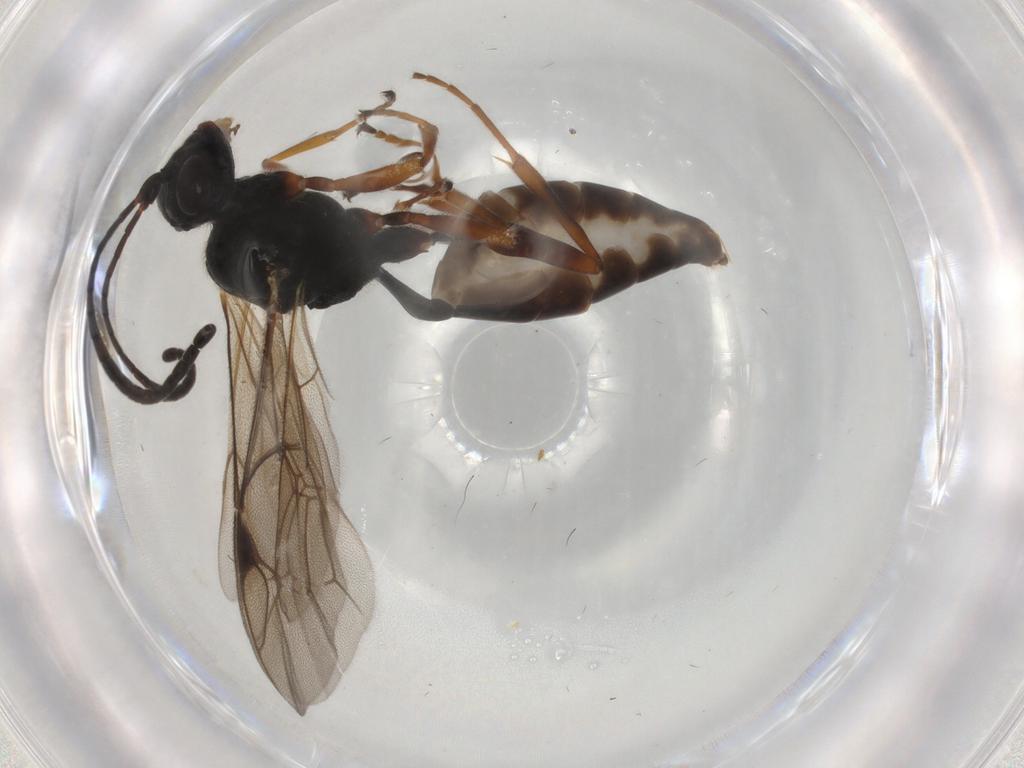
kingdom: Animalia
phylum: Arthropoda
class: Insecta
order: Hymenoptera
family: Ichneumonidae
